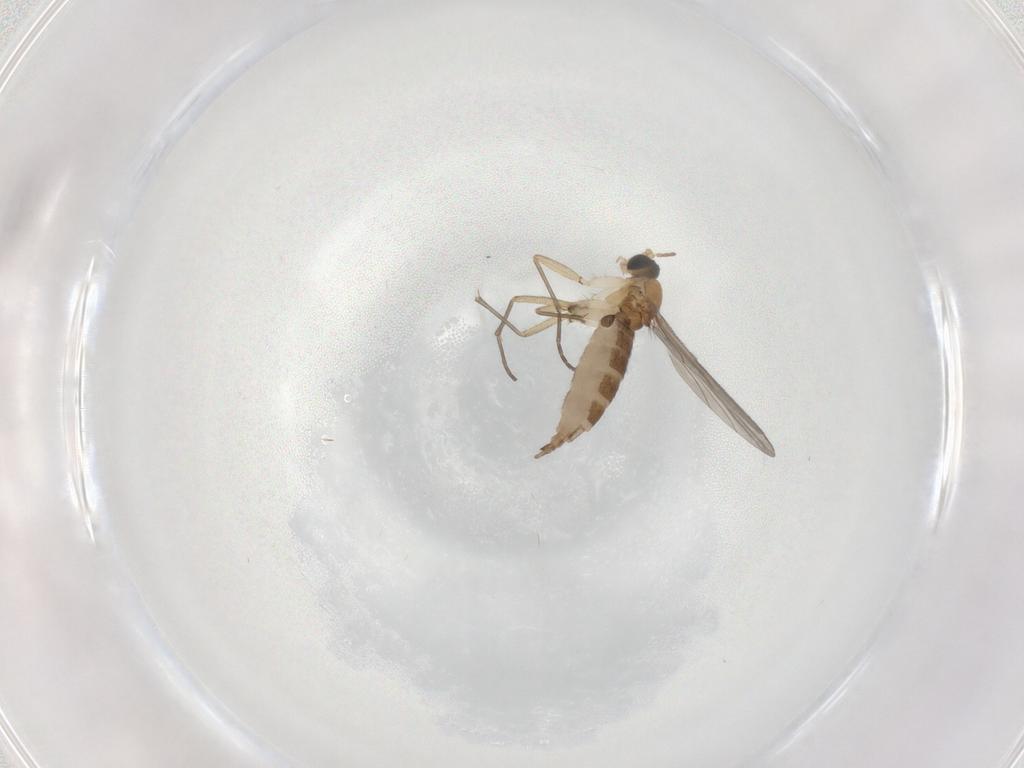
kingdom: Animalia
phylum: Arthropoda
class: Insecta
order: Diptera
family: Sciaridae
